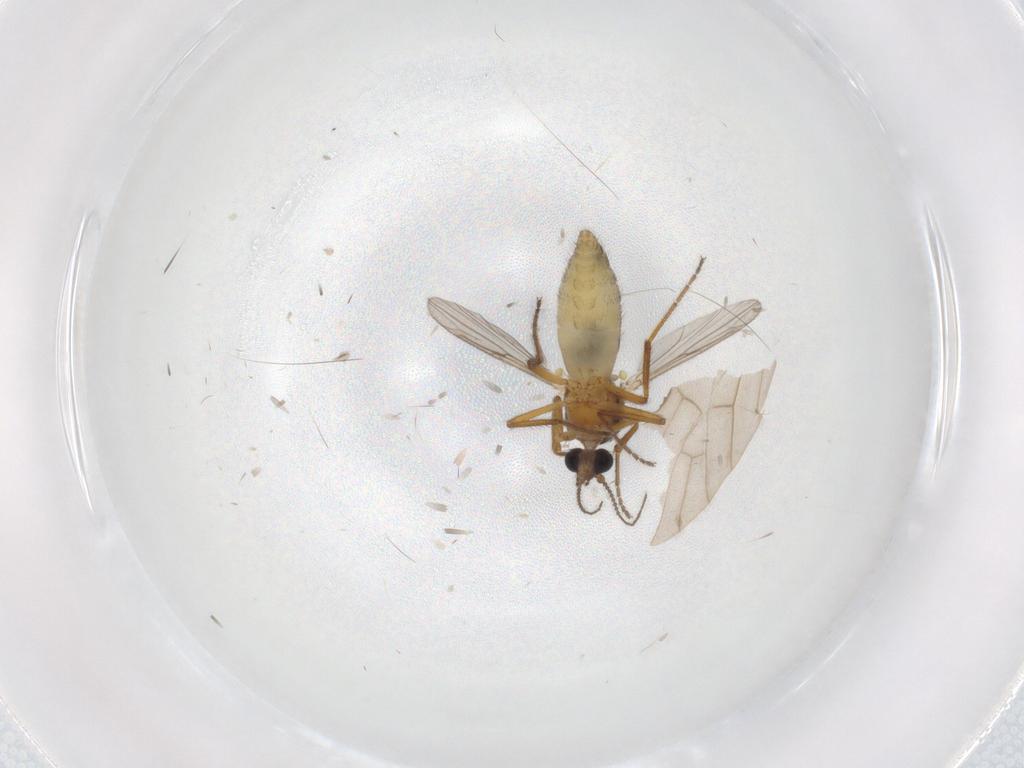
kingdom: Animalia
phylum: Arthropoda
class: Insecta
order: Diptera
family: Ceratopogonidae
